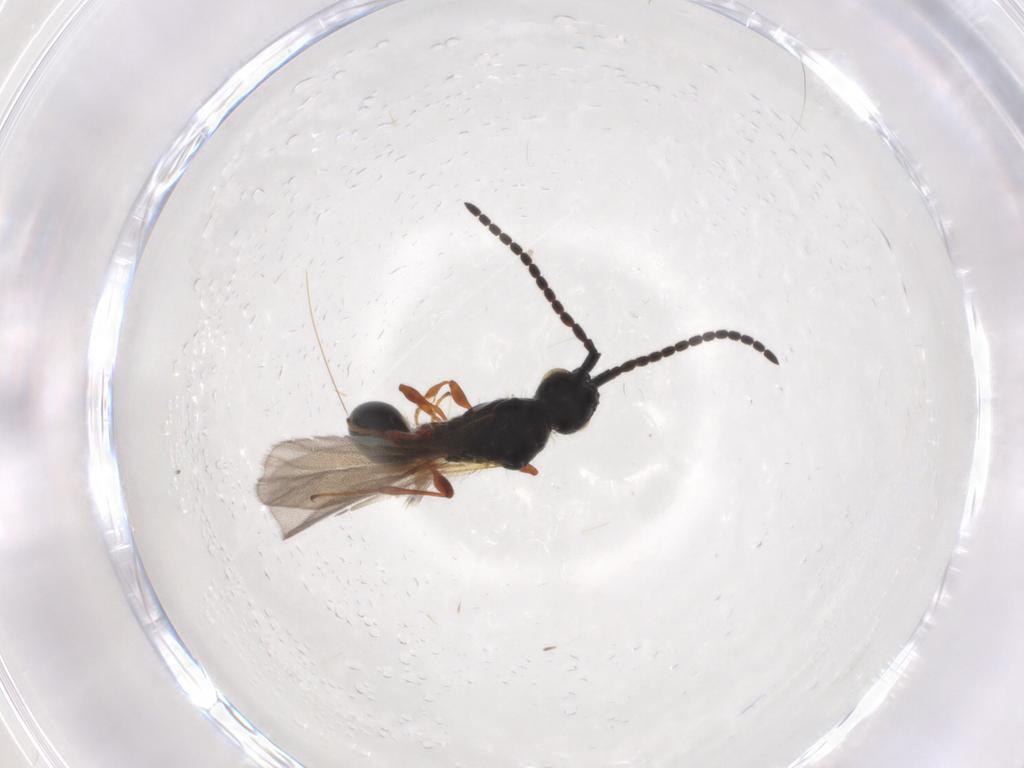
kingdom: Animalia
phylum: Arthropoda
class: Insecta
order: Hymenoptera
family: Diapriidae
